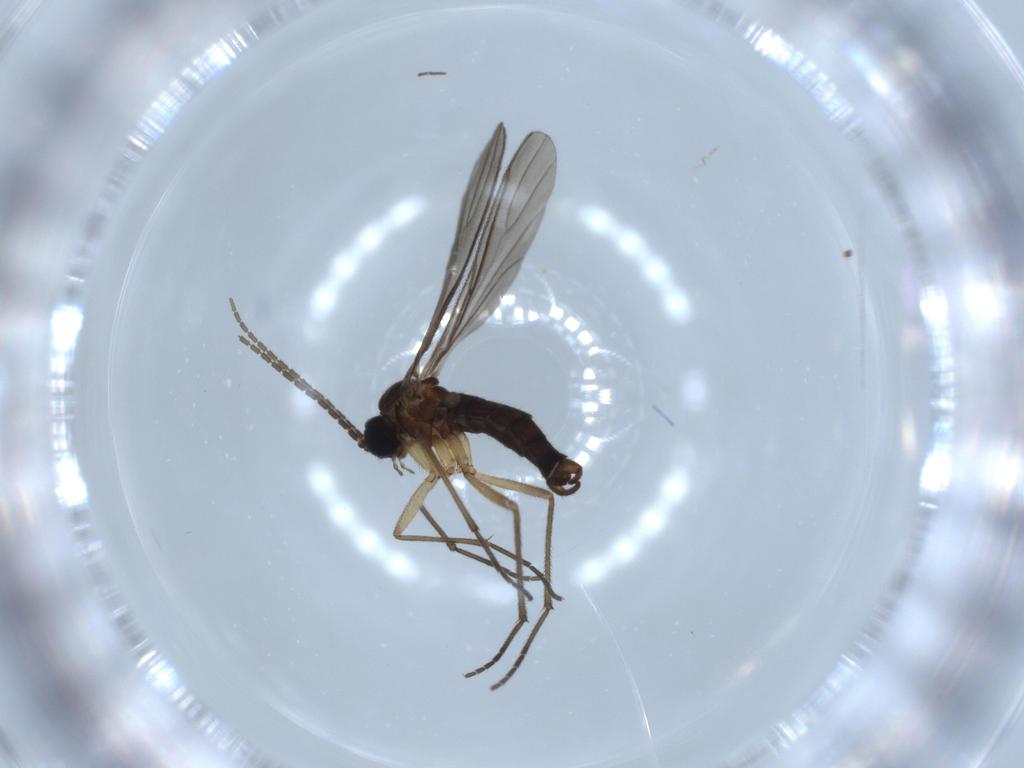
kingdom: Animalia
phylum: Arthropoda
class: Insecta
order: Diptera
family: Sciaridae
